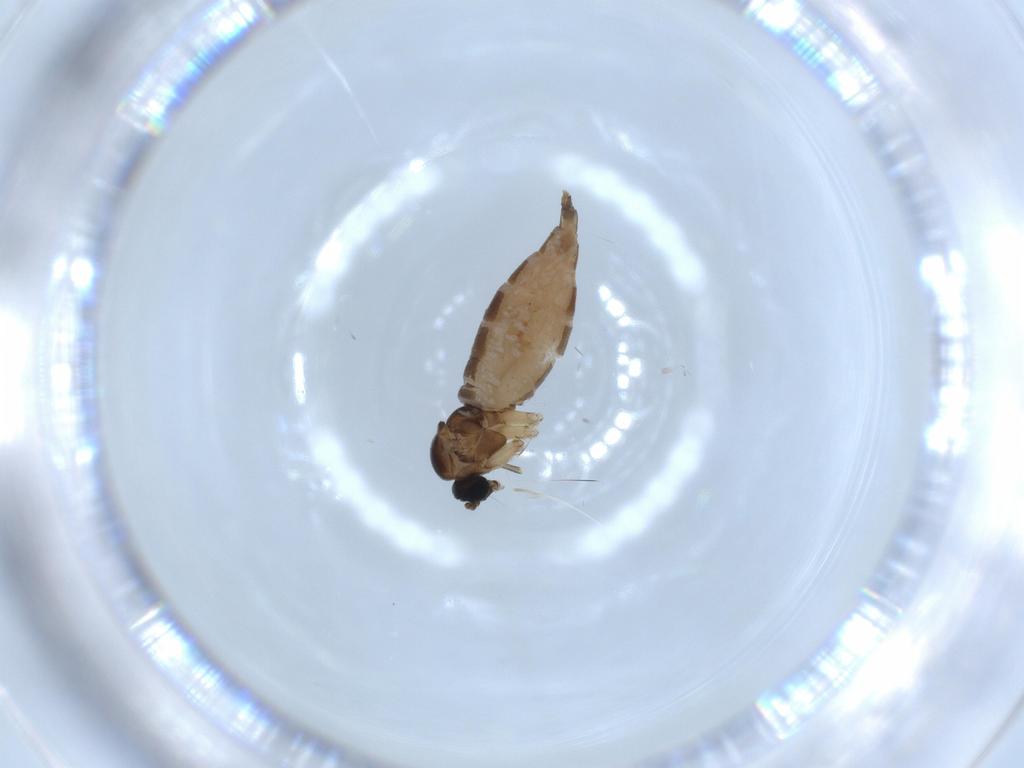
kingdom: Animalia
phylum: Arthropoda
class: Insecta
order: Diptera
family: Sciaridae
